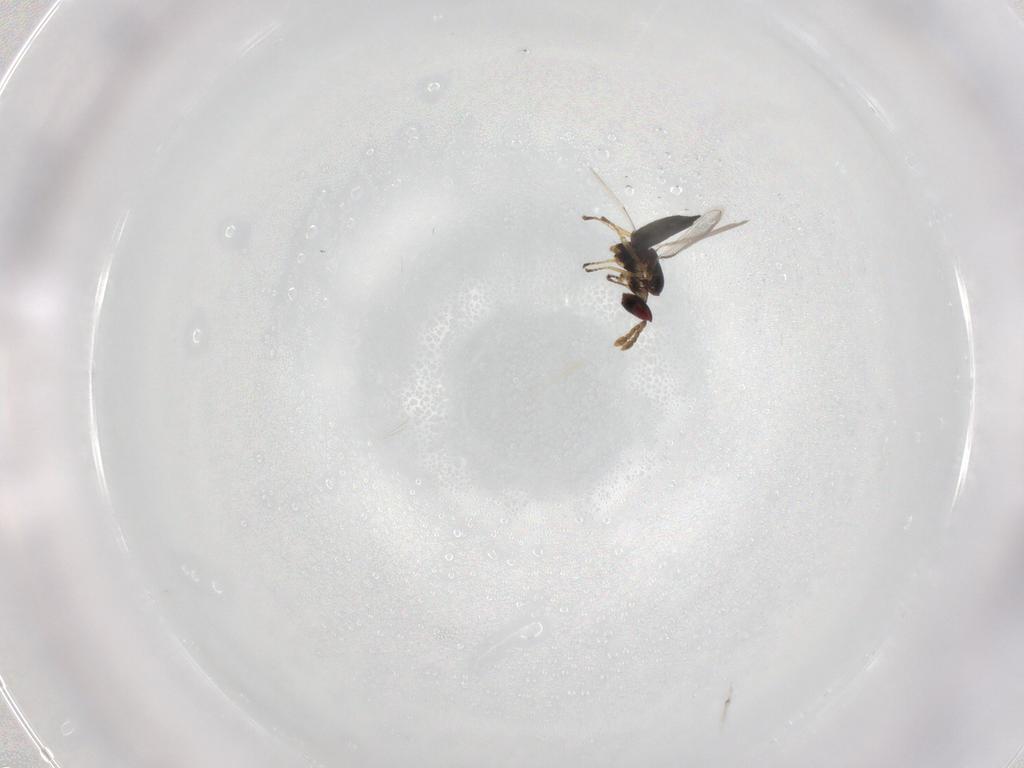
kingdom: Animalia
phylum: Arthropoda
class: Insecta
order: Hymenoptera
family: Eulophidae
